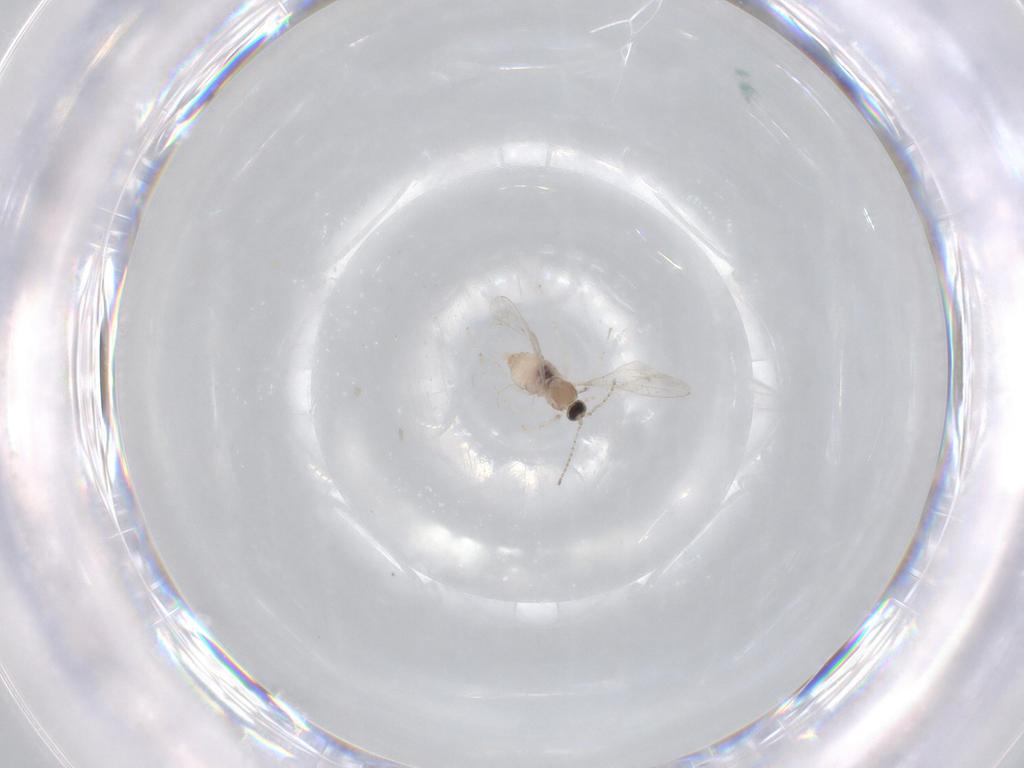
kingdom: Animalia
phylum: Arthropoda
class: Insecta
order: Diptera
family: Cecidomyiidae
